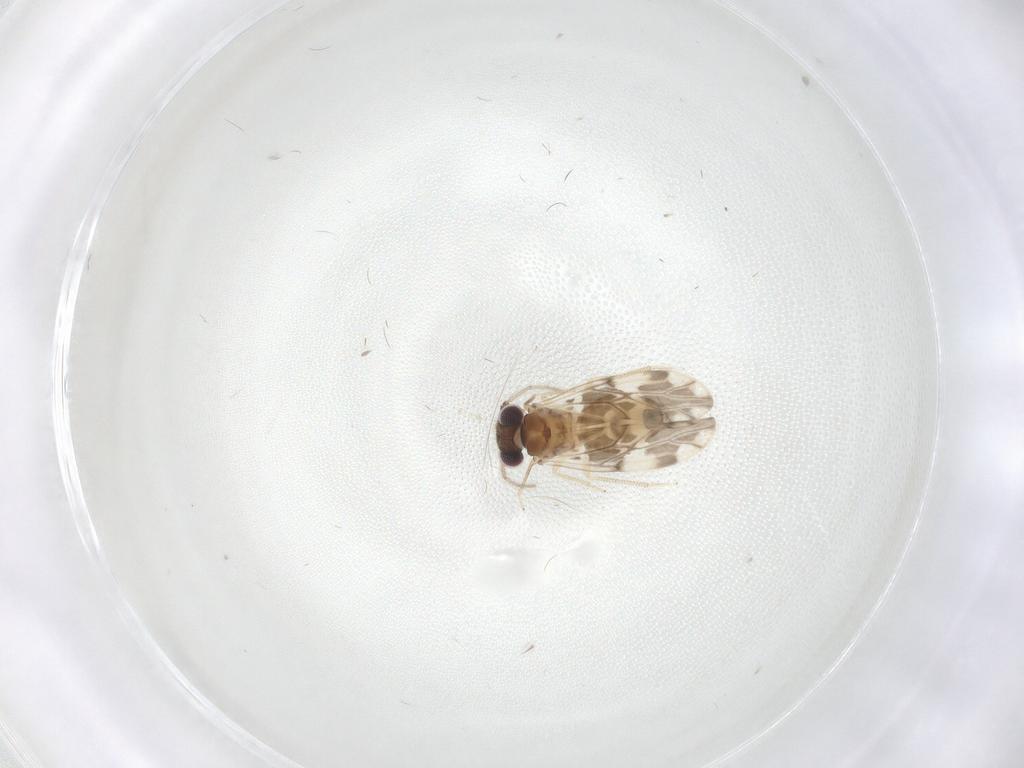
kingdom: Animalia
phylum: Arthropoda
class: Insecta
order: Psocodea
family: Ectopsocidae
